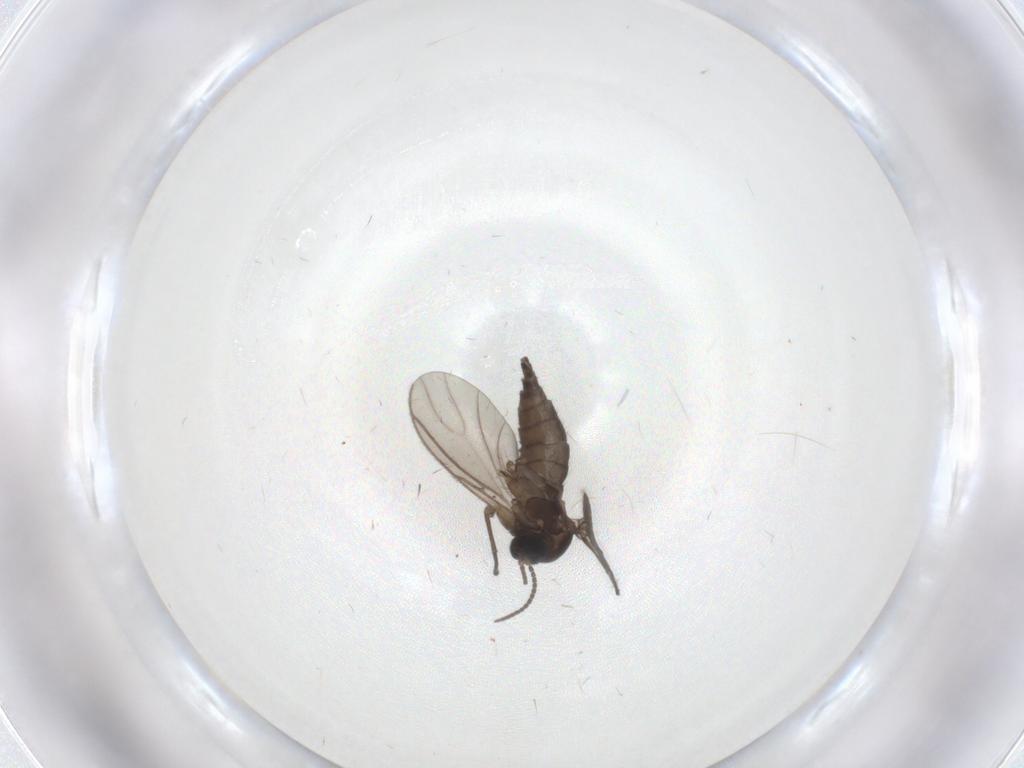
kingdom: Animalia
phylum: Arthropoda
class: Insecta
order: Diptera
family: Sciaridae
